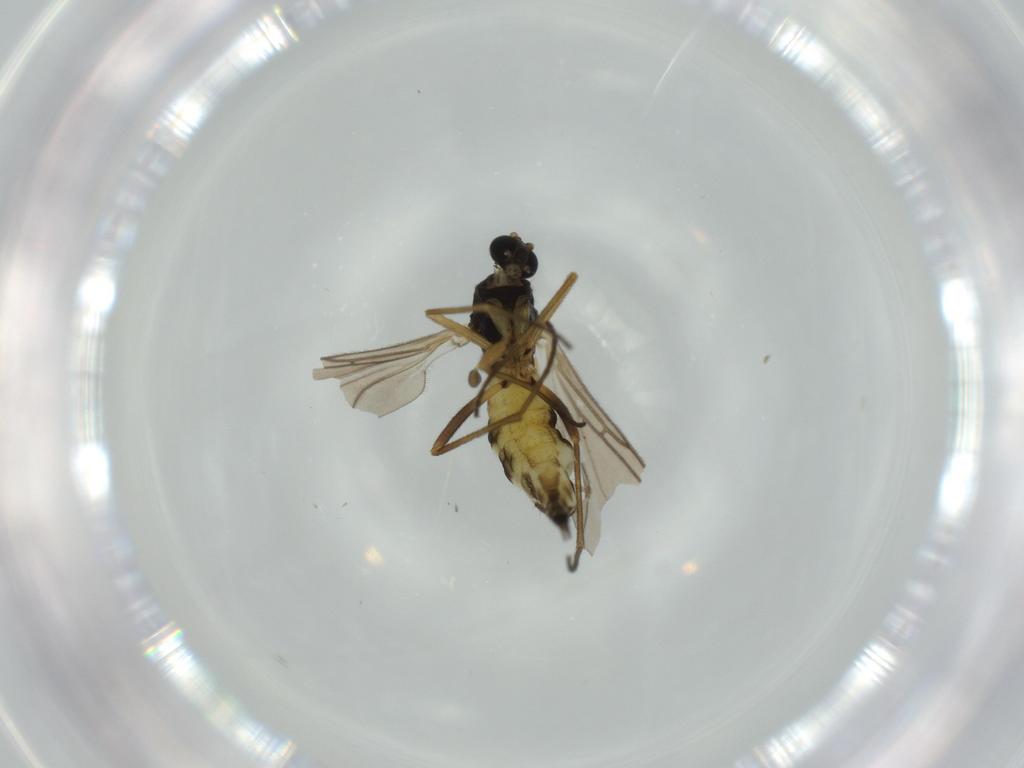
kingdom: Animalia
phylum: Arthropoda
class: Insecta
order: Diptera
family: Sciaridae
